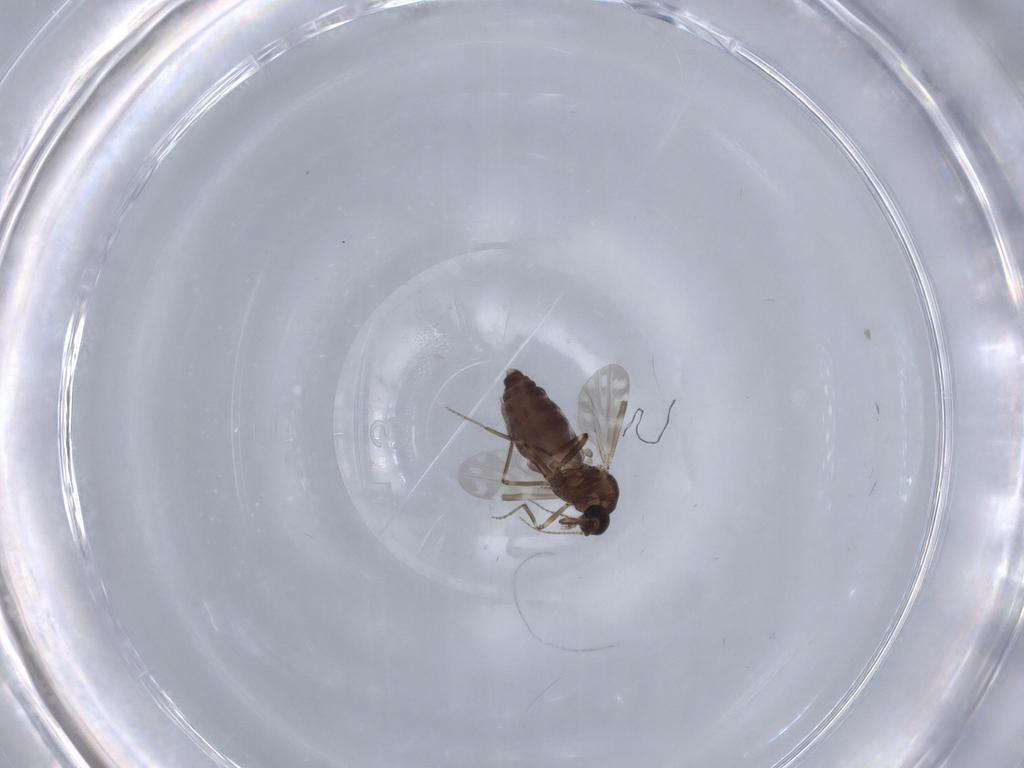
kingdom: Animalia
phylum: Arthropoda
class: Insecta
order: Diptera
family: Ceratopogonidae
